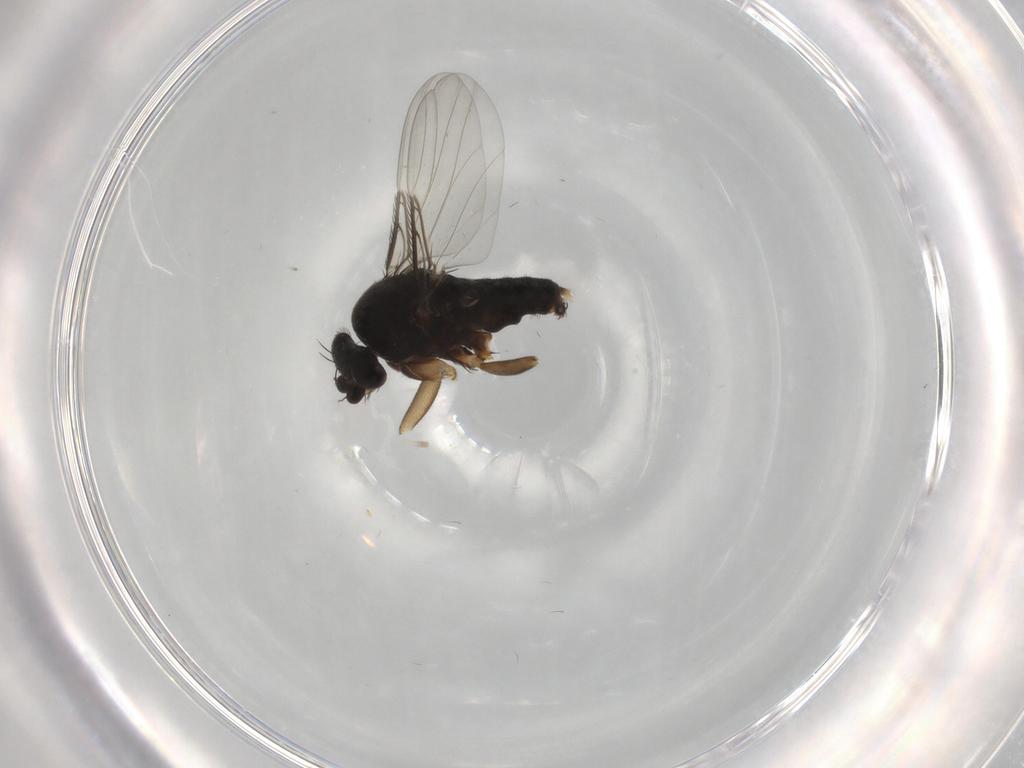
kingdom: Animalia
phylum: Arthropoda
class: Insecta
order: Diptera
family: Phoridae
